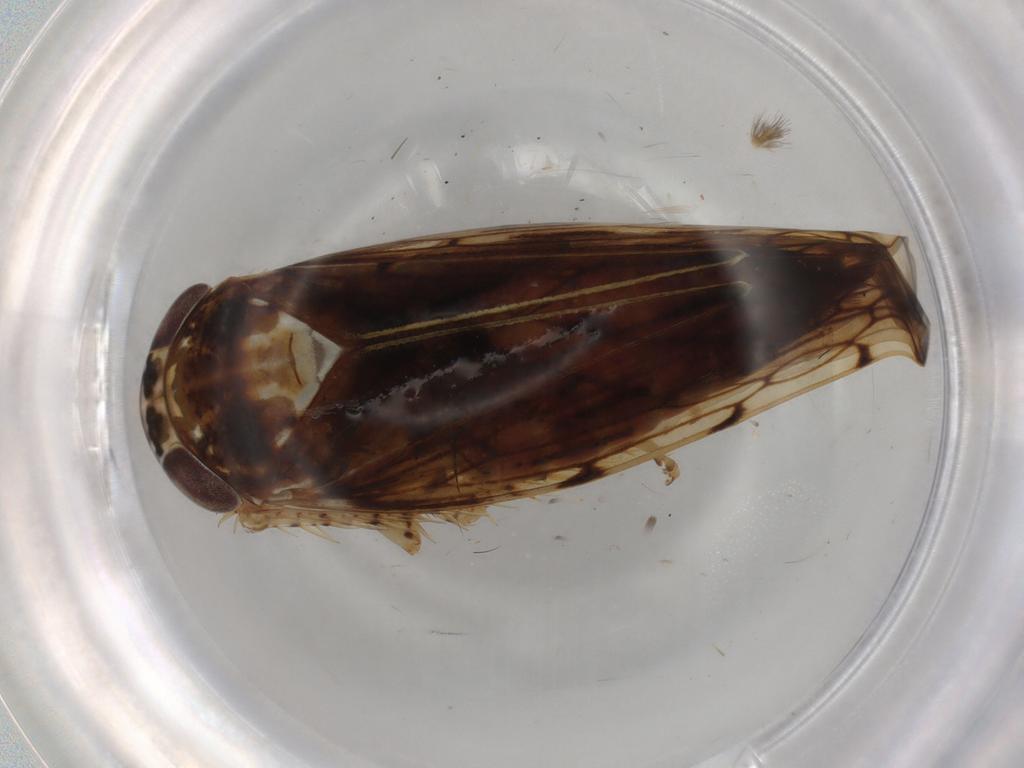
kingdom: Animalia
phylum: Arthropoda
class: Insecta
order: Hemiptera
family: Cicadellidae
